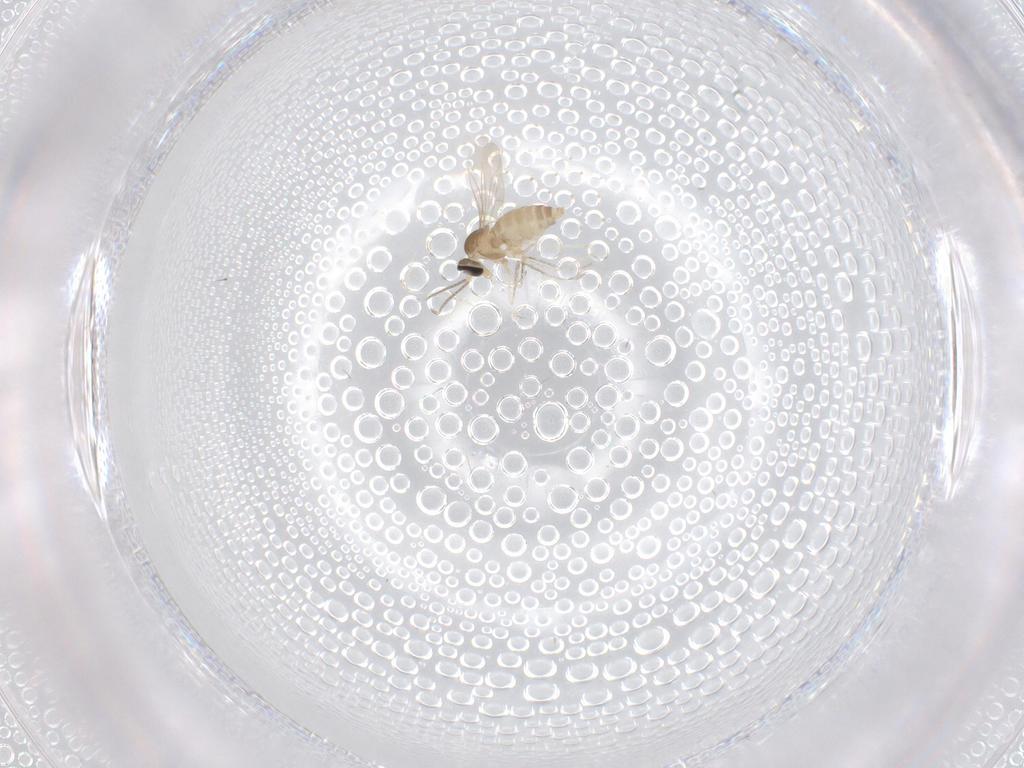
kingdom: Animalia
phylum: Arthropoda
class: Insecta
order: Diptera
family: Cecidomyiidae
